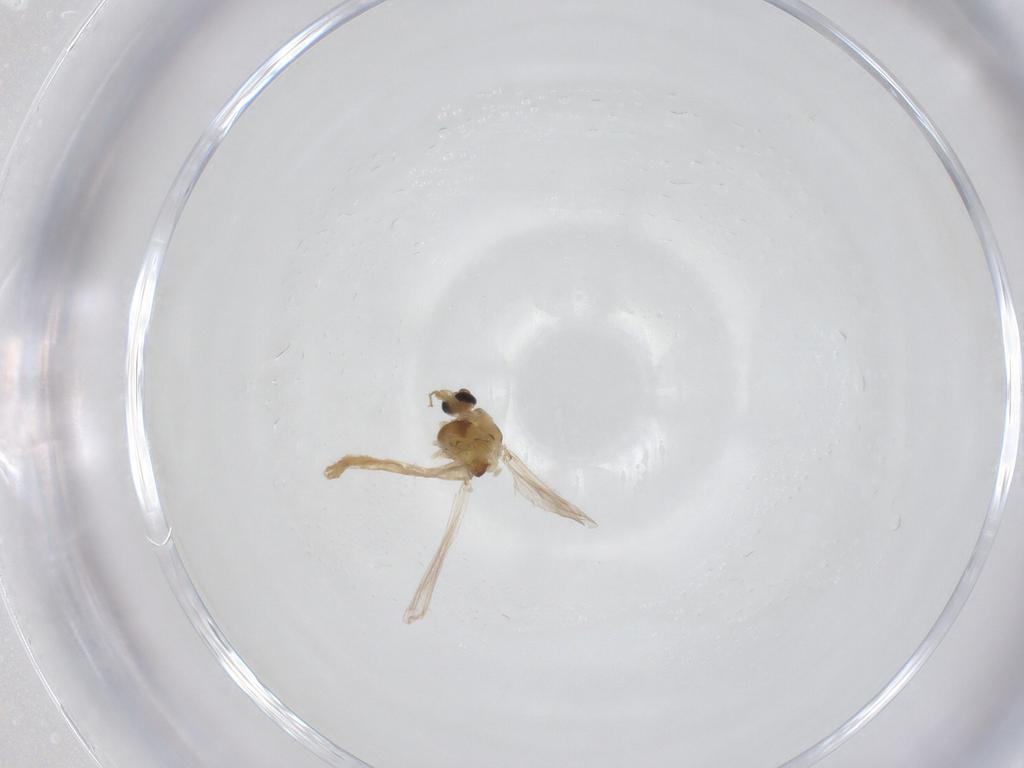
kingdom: Animalia
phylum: Arthropoda
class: Insecta
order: Diptera
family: Chironomidae
